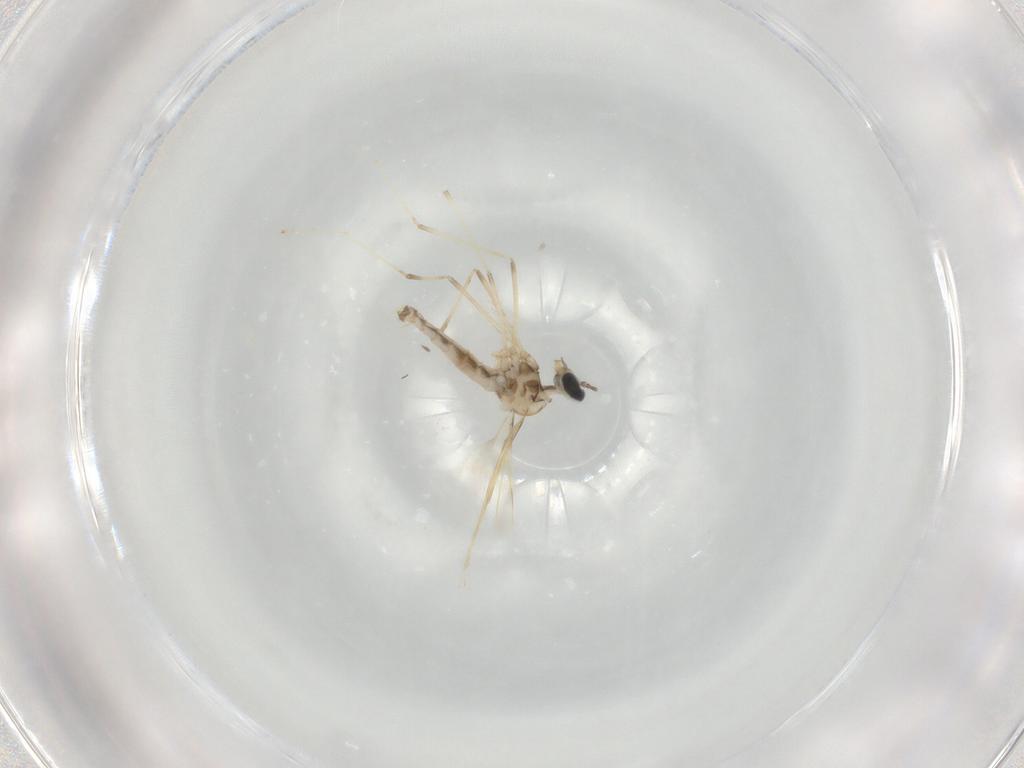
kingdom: Animalia
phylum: Arthropoda
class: Insecta
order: Diptera
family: Cecidomyiidae
